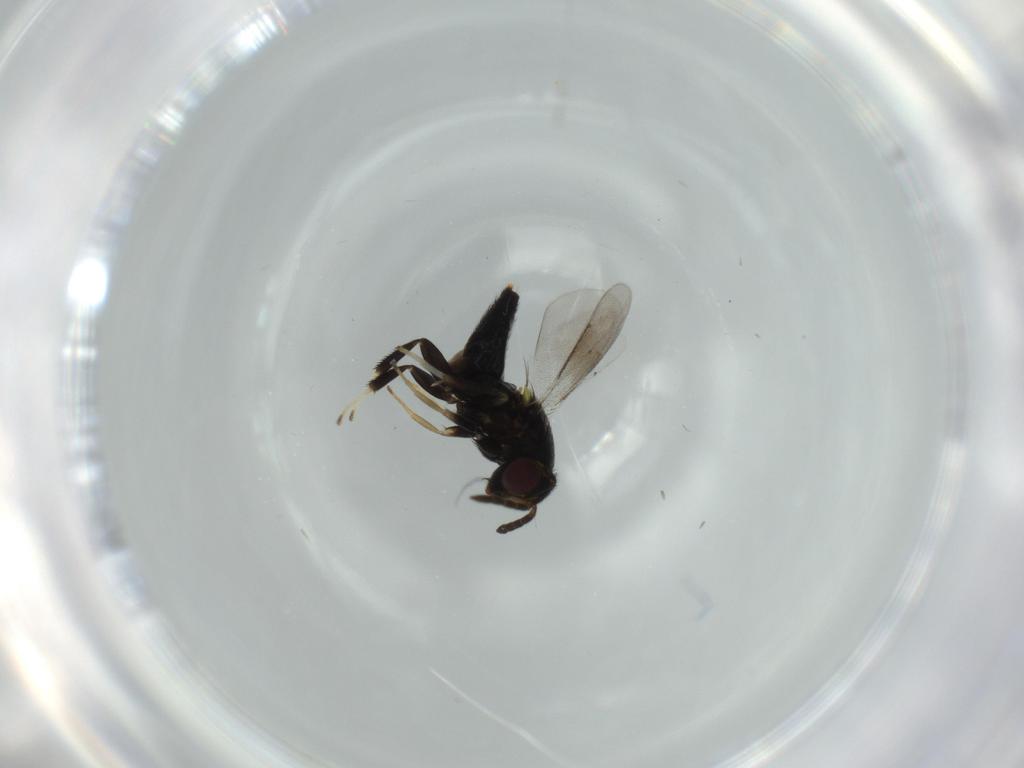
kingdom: Animalia
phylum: Arthropoda
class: Insecta
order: Hymenoptera
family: Aphelinidae
